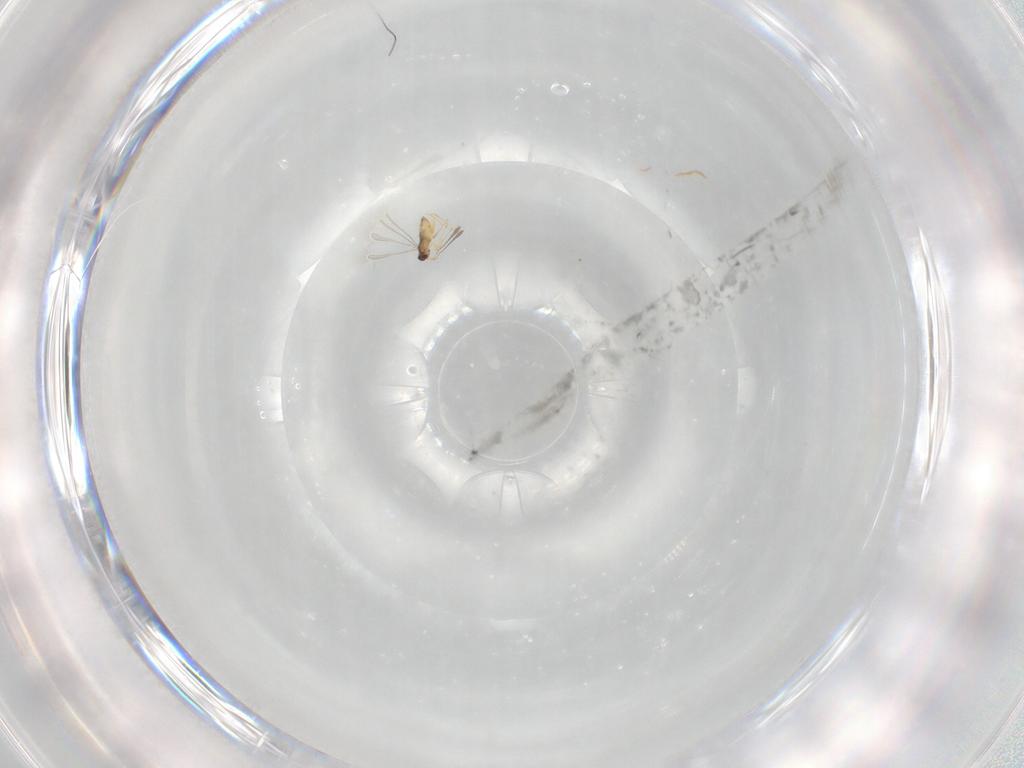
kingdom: Animalia
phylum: Arthropoda
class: Insecta
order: Hymenoptera
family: Mymaridae
